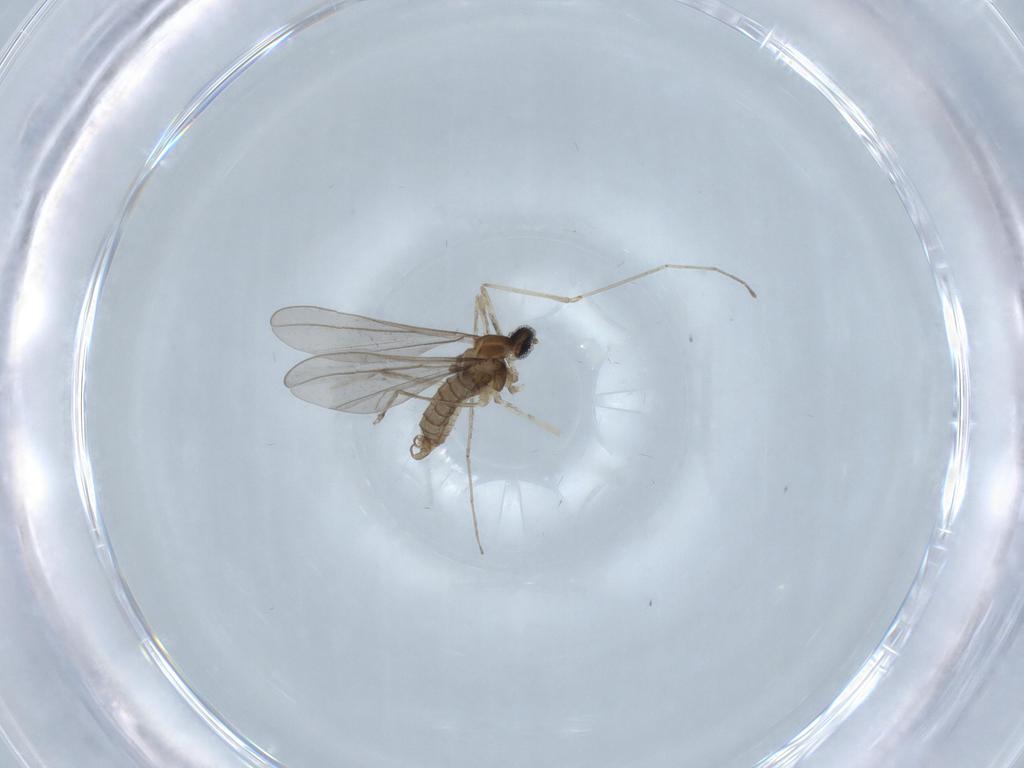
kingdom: Animalia
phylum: Arthropoda
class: Insecta
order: Diptera
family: Cecidomyiidae
